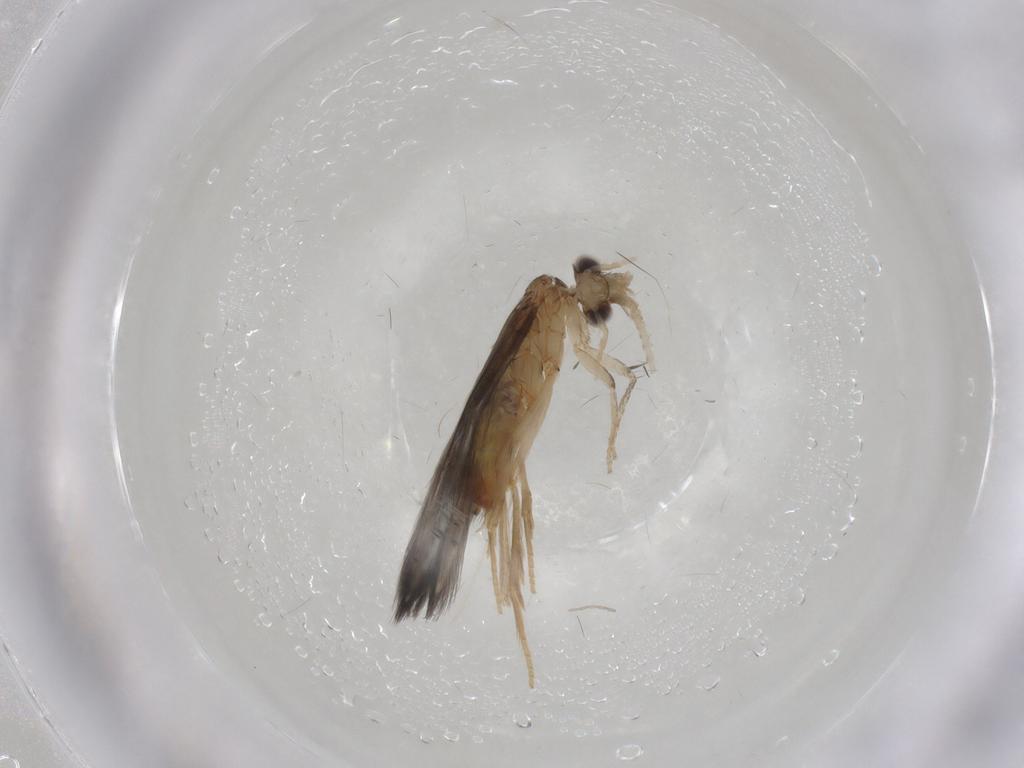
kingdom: Animalia
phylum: Arthropoda
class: Insecta
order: Trichoptera
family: Hydroptilidae
